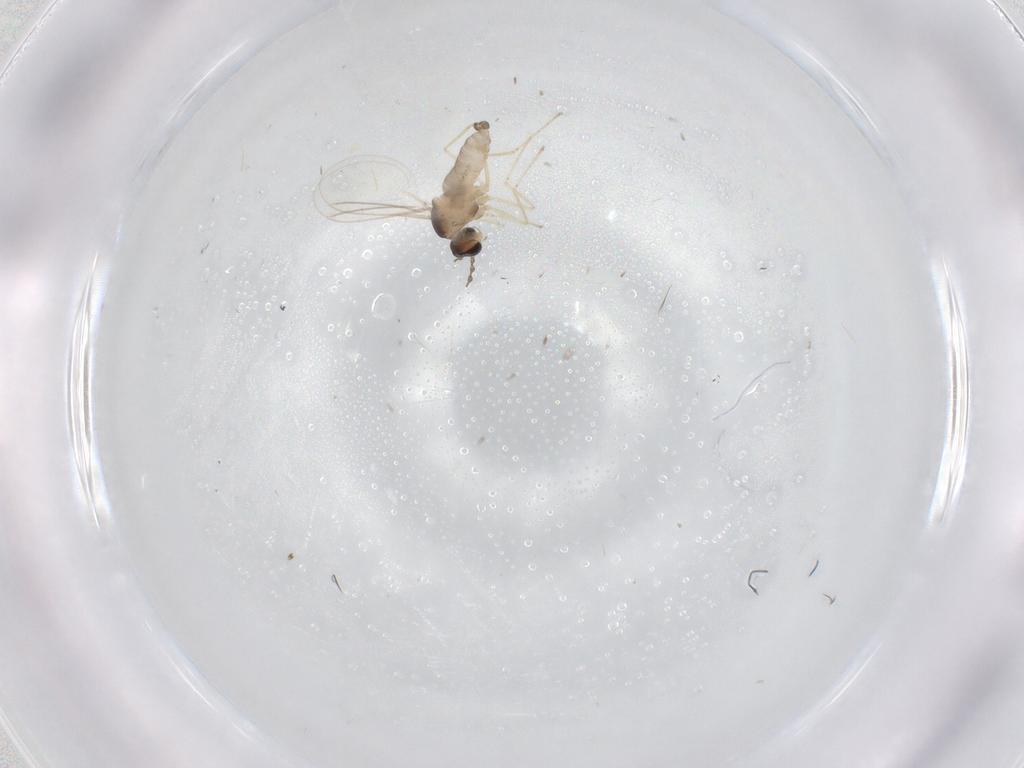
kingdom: Animalia
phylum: Arthropoda
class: Insecta
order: Diptera
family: Cecidomyiidae
